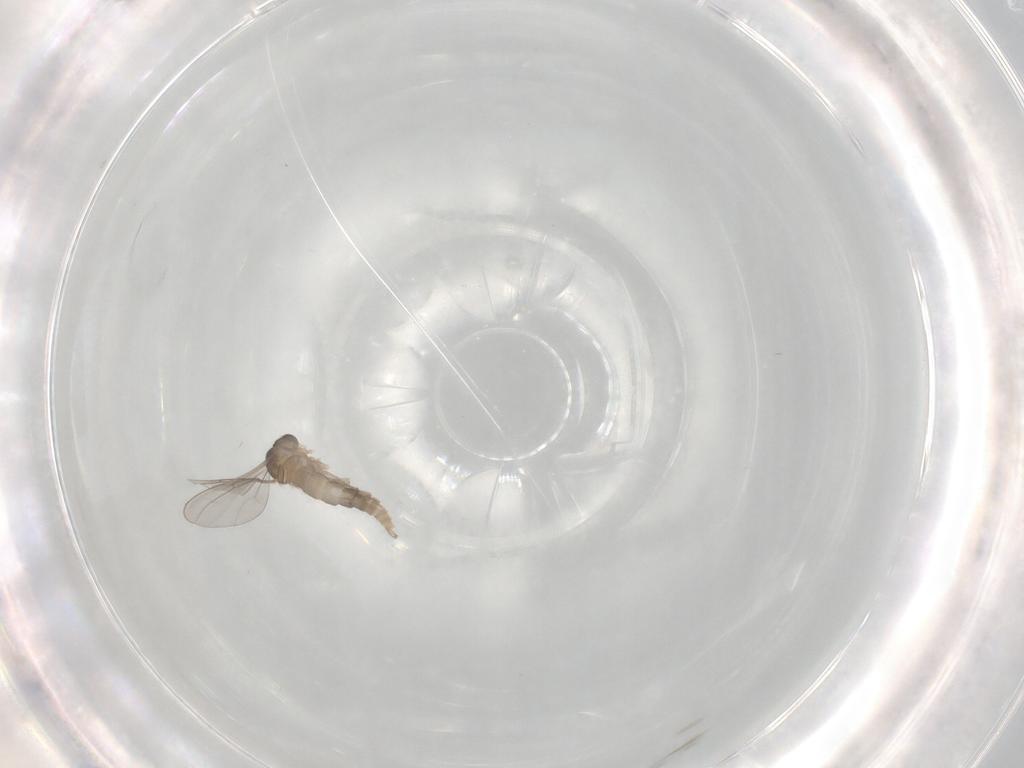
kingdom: Animalia
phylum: Arthropoda
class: Insecta
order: Diptera
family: Cecidomyiidae
